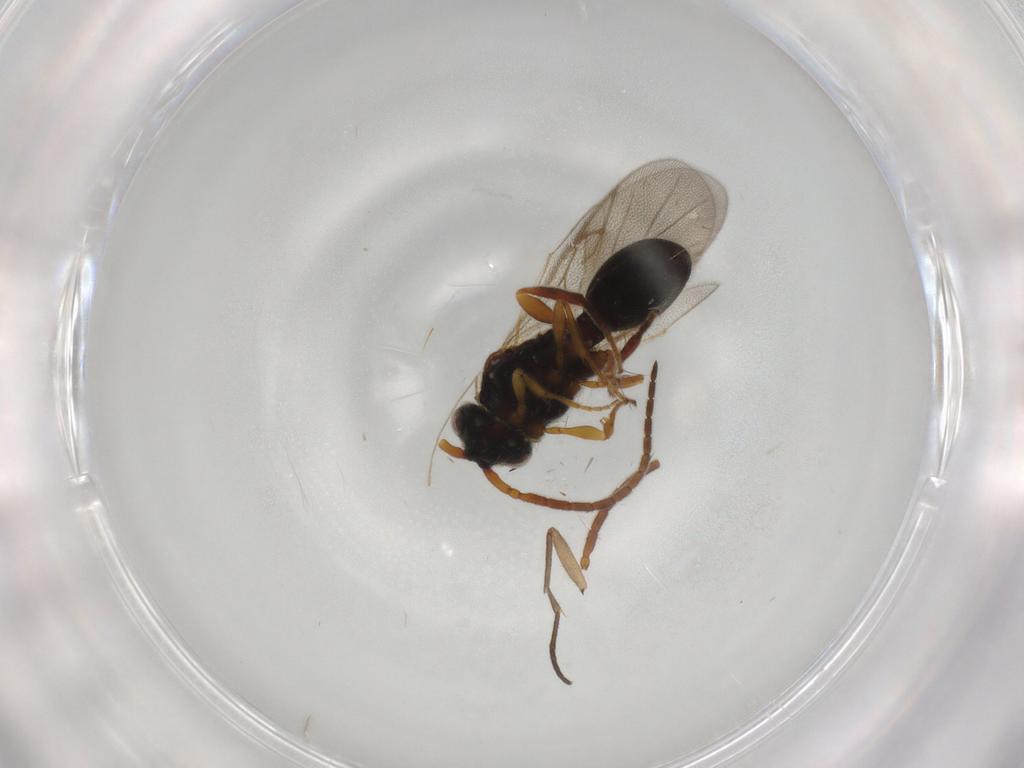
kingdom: Animalia
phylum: Arthropoda
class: Insecta
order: Hymenoptera
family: Diapriidae
